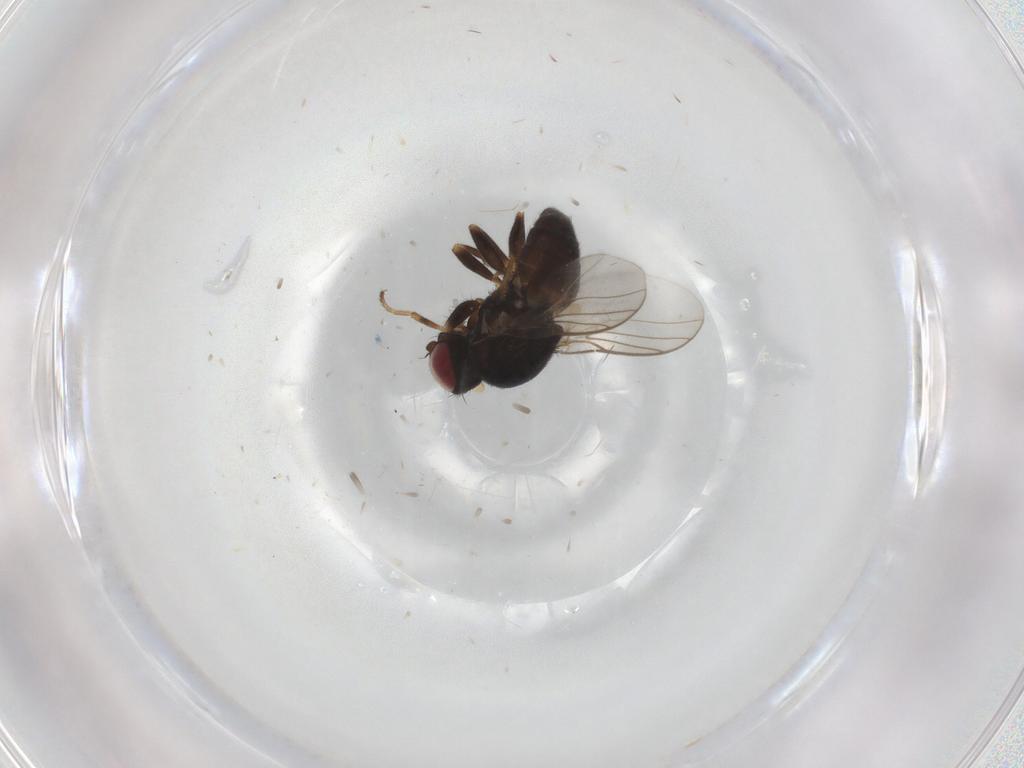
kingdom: Animalia
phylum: Arthropoda
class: Insecta
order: Diptera
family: Chloropidae
